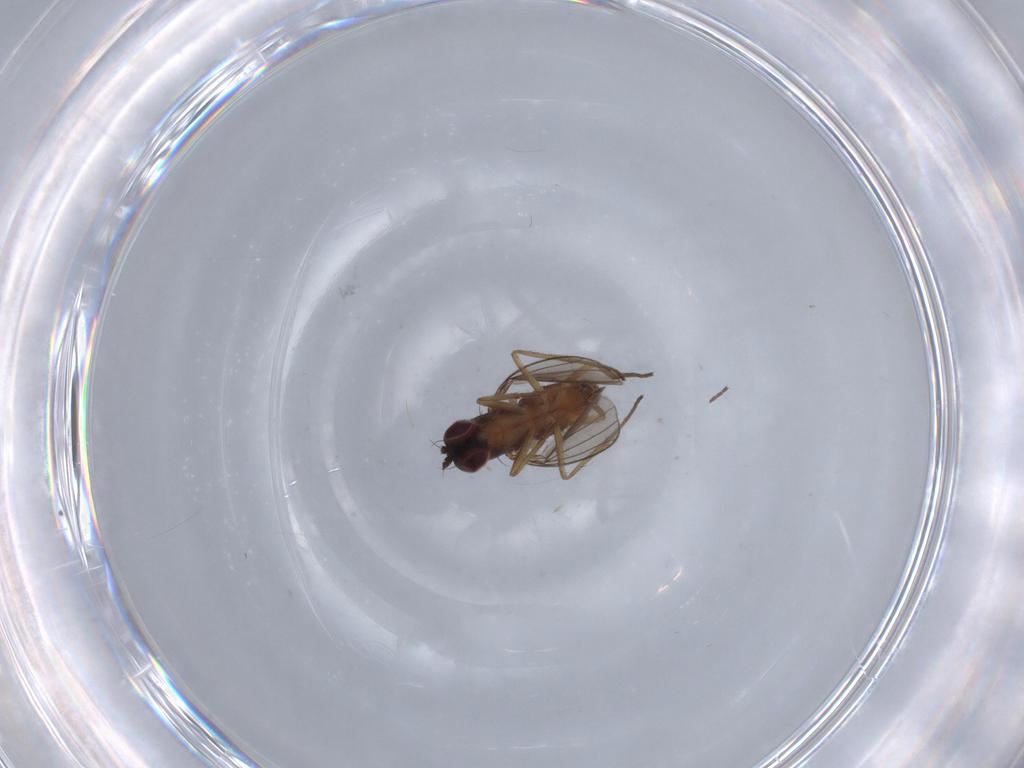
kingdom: Animalia
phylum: Arthropoda
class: Insecta
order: Diptera
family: Dolichopodidae
